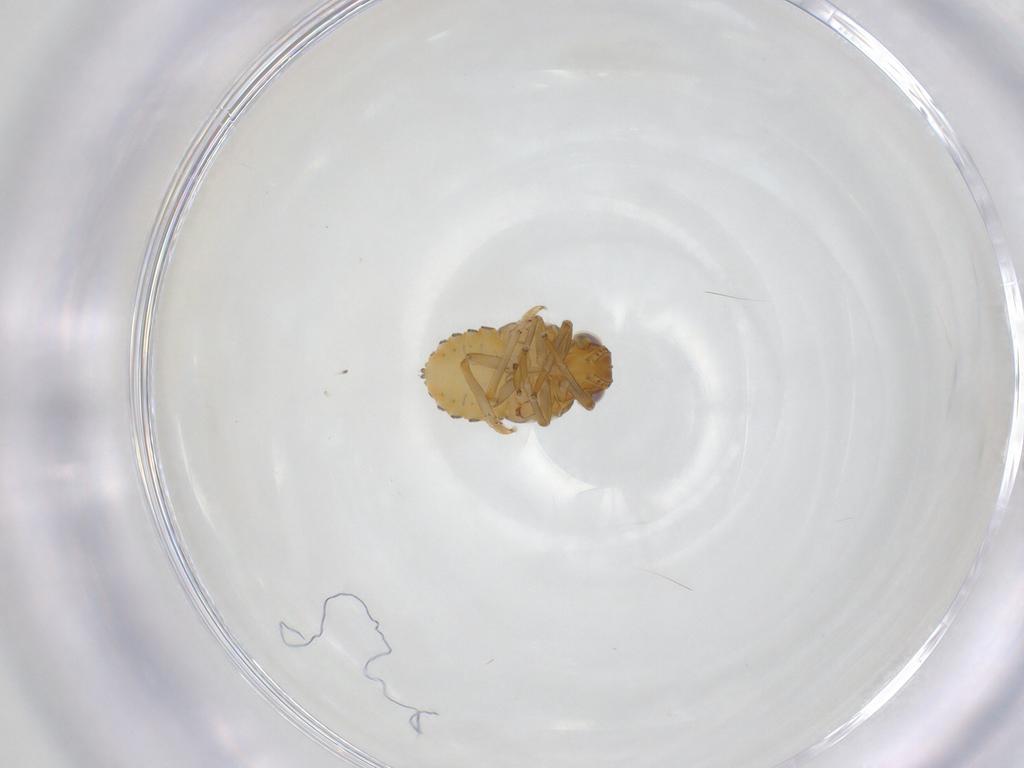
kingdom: Animalia
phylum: Arthropoda
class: Insecta
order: Hemiptera
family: Issidae
